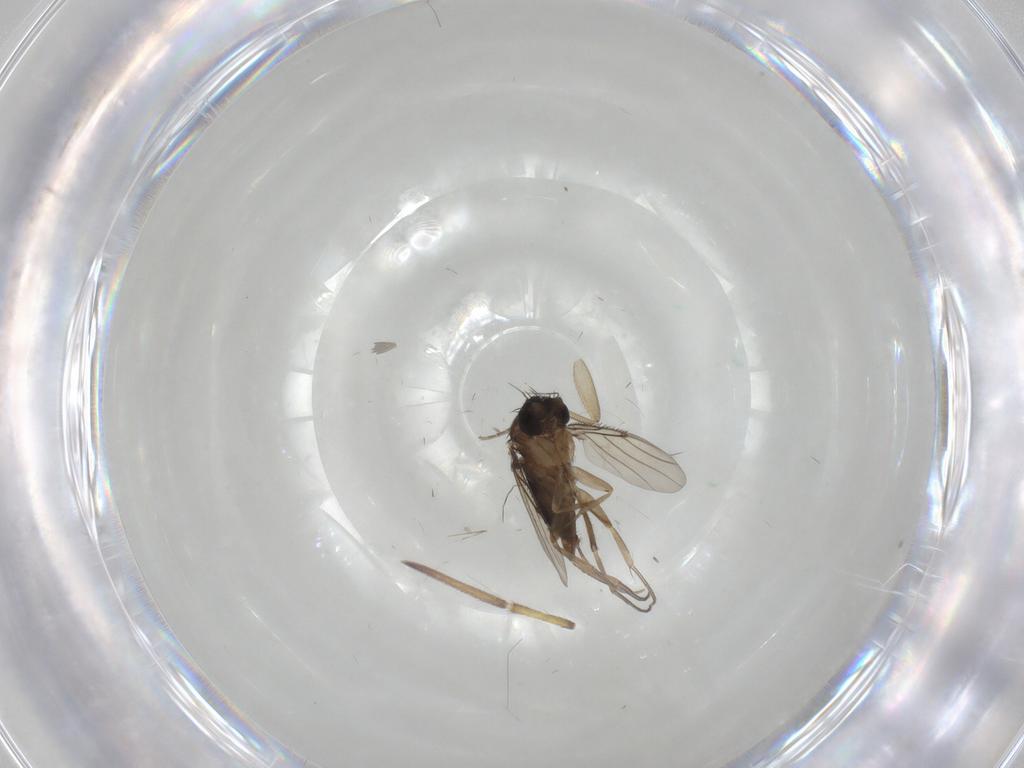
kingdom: Animalia
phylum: Arthropoda
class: Insecta
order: Diptera
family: Phoridae
